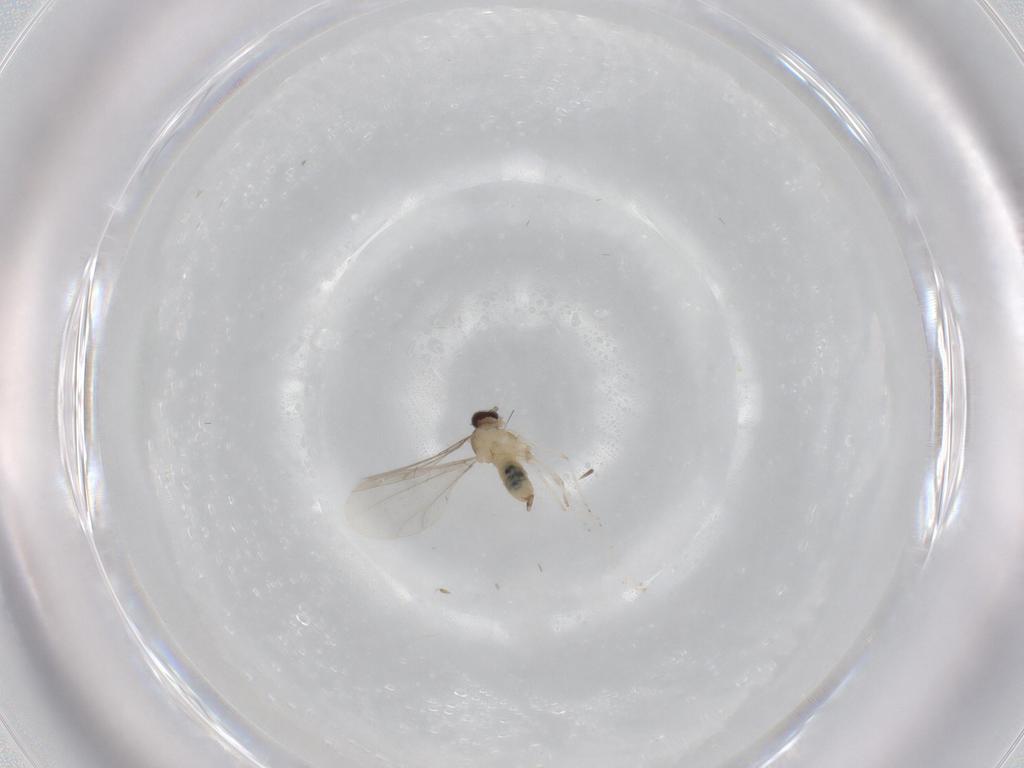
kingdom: Animalia
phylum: Arthropoda
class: Insecta
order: Diptera
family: Cecidomyiidae
